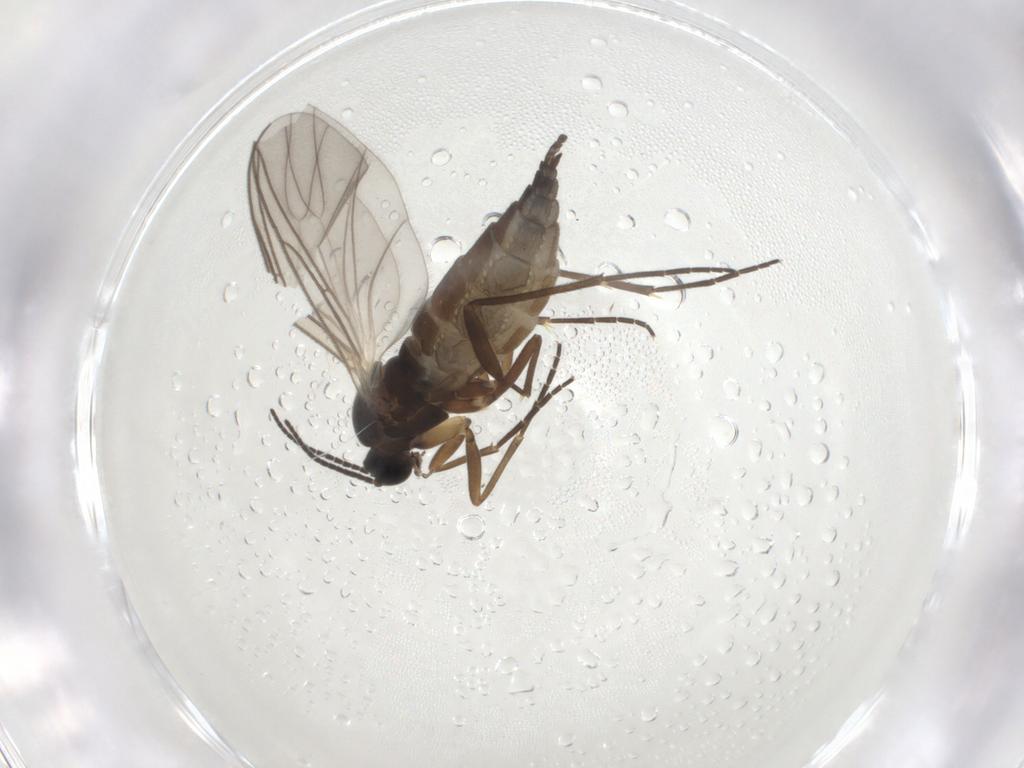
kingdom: Animalia
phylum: Arthropoda
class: Insecta
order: Diptera
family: Sciaridae
